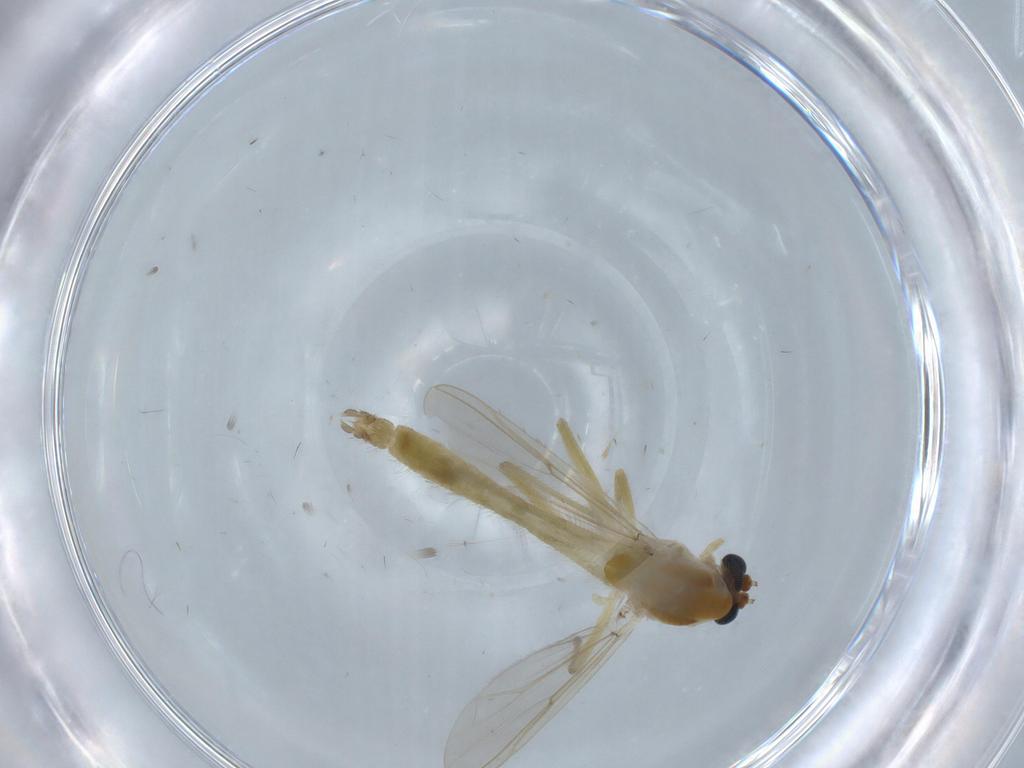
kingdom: Animalia
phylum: Arthropoda
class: Insecta
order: Diptera
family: Chironomidae
